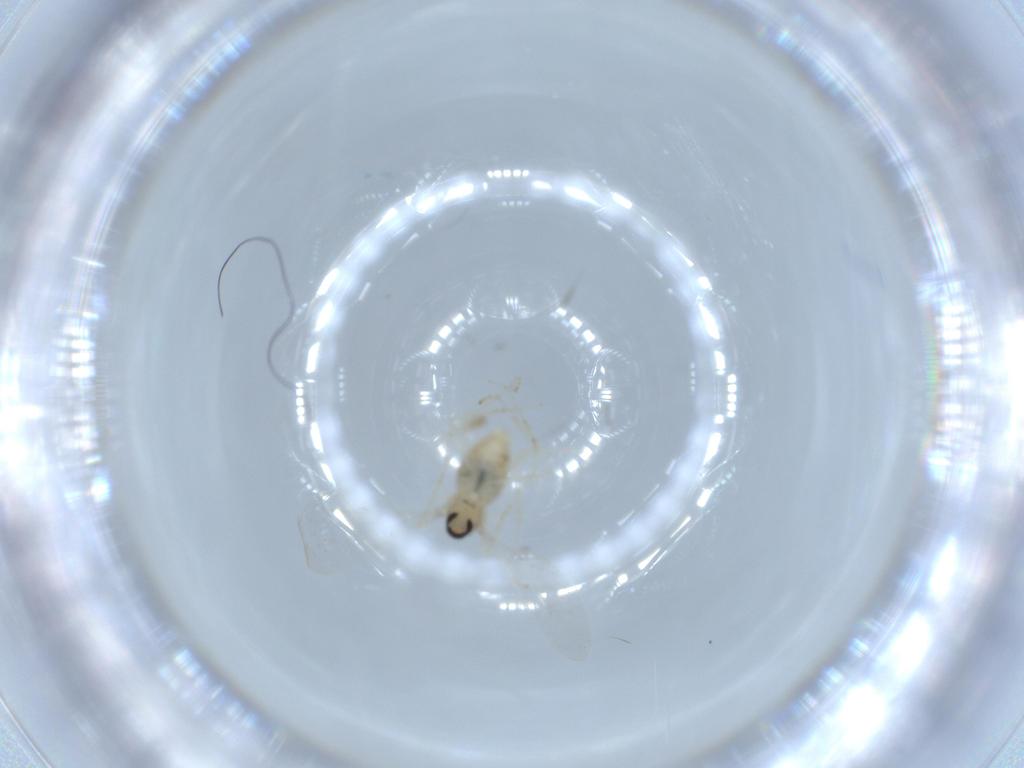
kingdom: Animalia
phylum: Arthropoda
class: Insecta
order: Diptera
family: Cecidomyiidae
